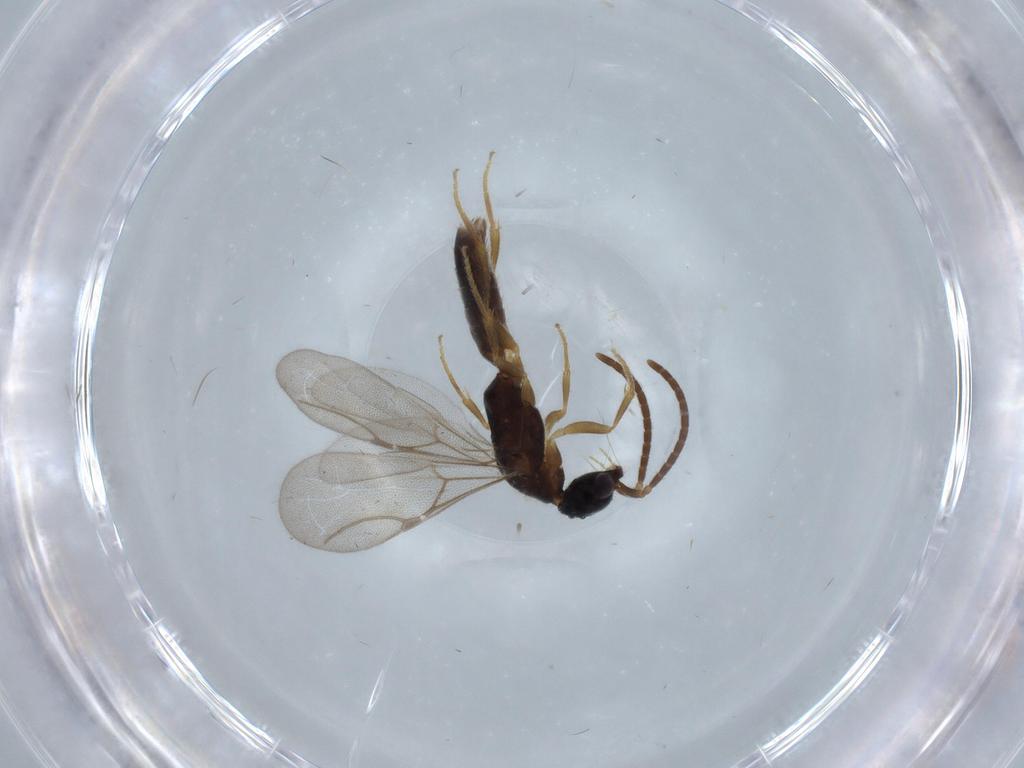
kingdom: Animalia
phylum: Arthropoda
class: Insecta
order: Hymenoptera
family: Bethylidae
